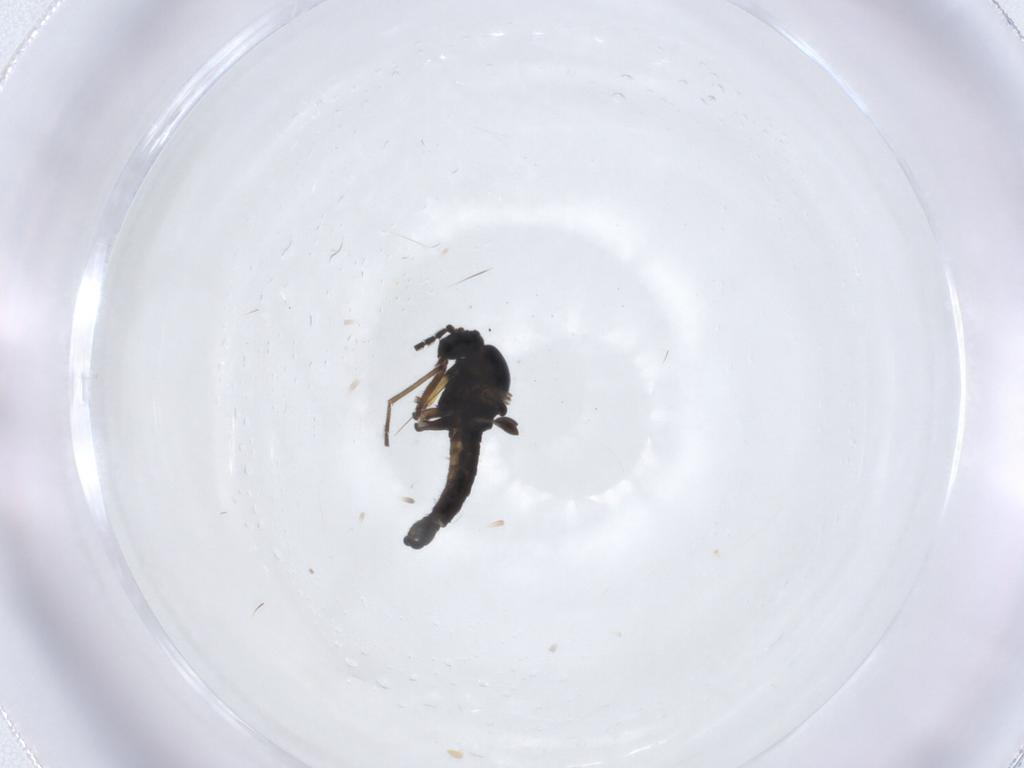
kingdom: Animalia
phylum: Arthropoda
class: Insecta
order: Diptera
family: Sciaridae
